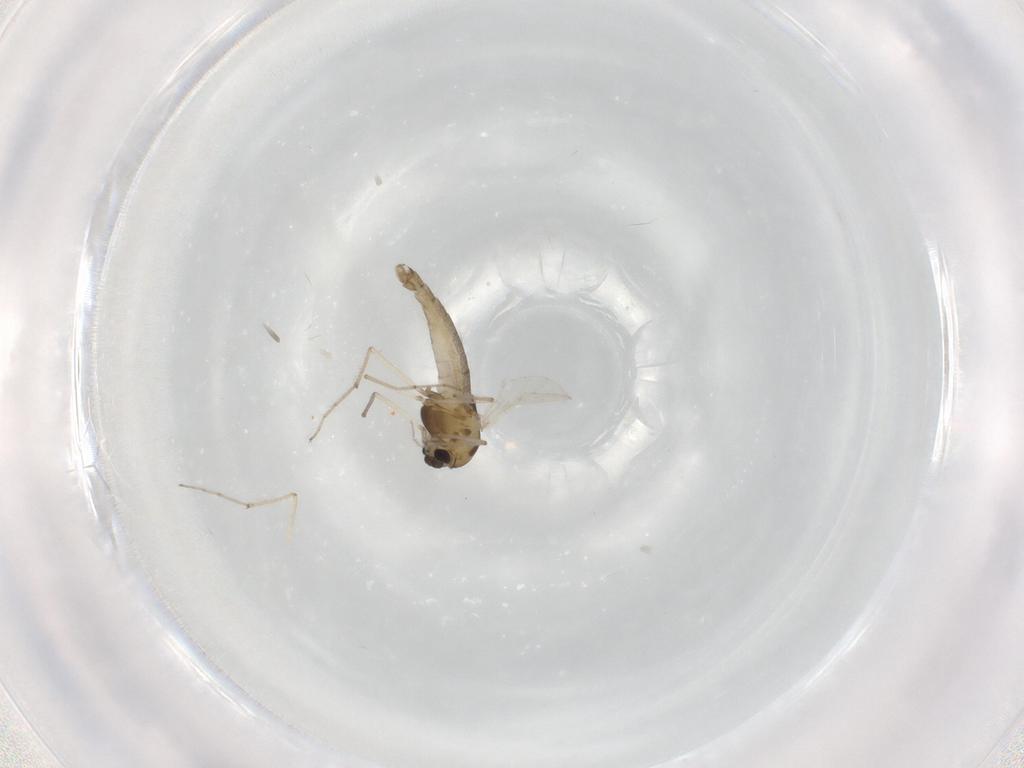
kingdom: Animalia
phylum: Arthropoda
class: Insecta
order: Diptera
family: Chironomidae
